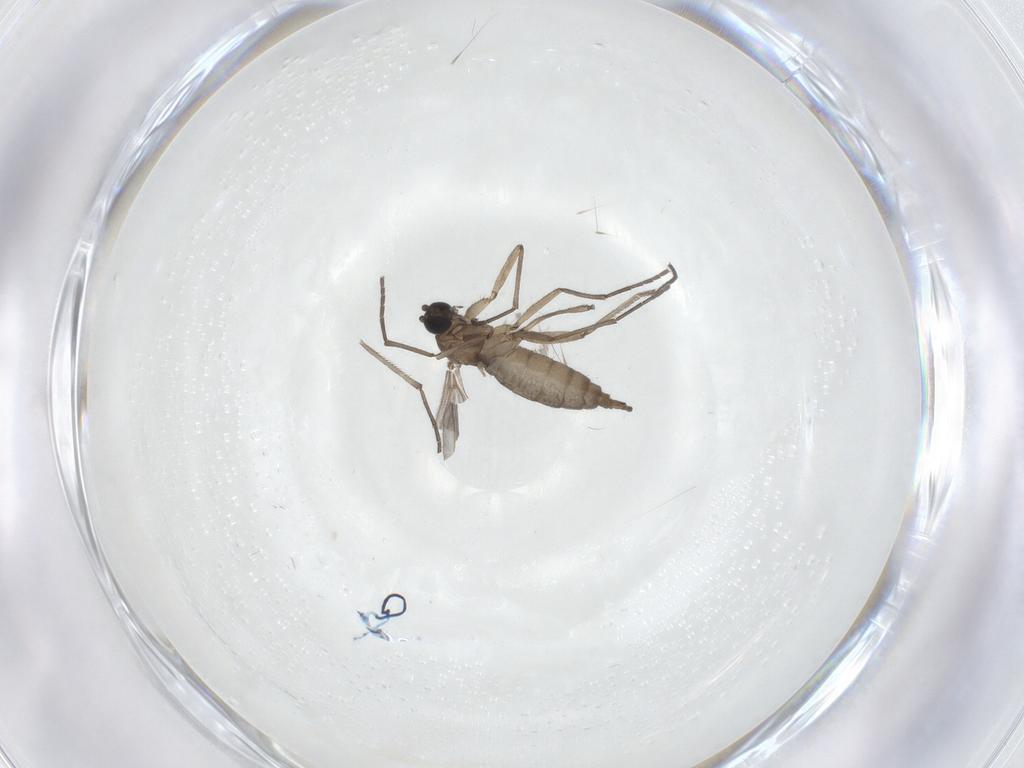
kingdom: Animalia
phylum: Arthropoda
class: Insecta
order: Diptera
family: Sciaridae
